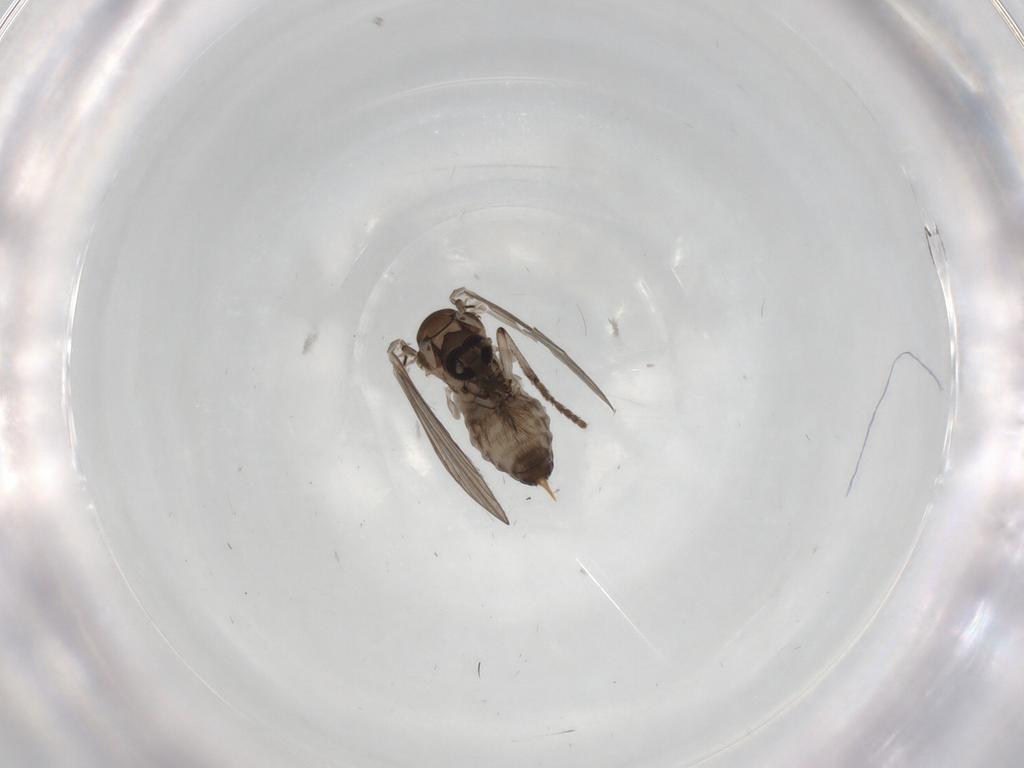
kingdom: Animalia
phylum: Arthropoda
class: Insecta
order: Diptera
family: Psychodidae
